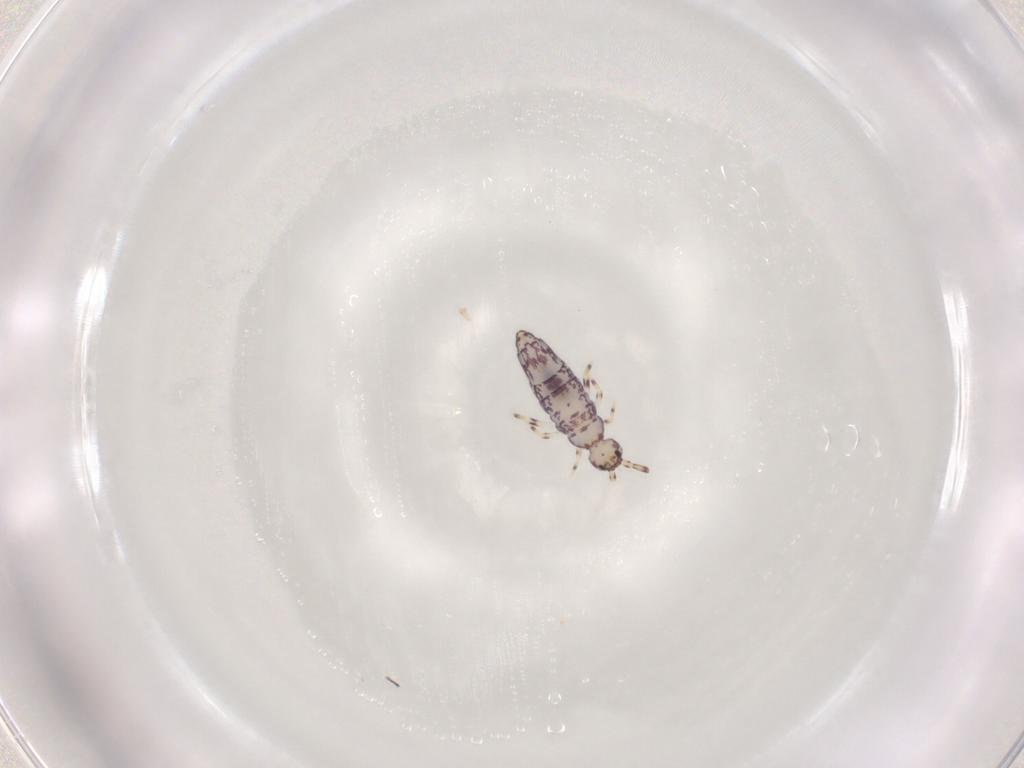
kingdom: Animalia
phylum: Arthropoda
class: Collembola
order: Entomobryomorpha
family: Entomobryidae
